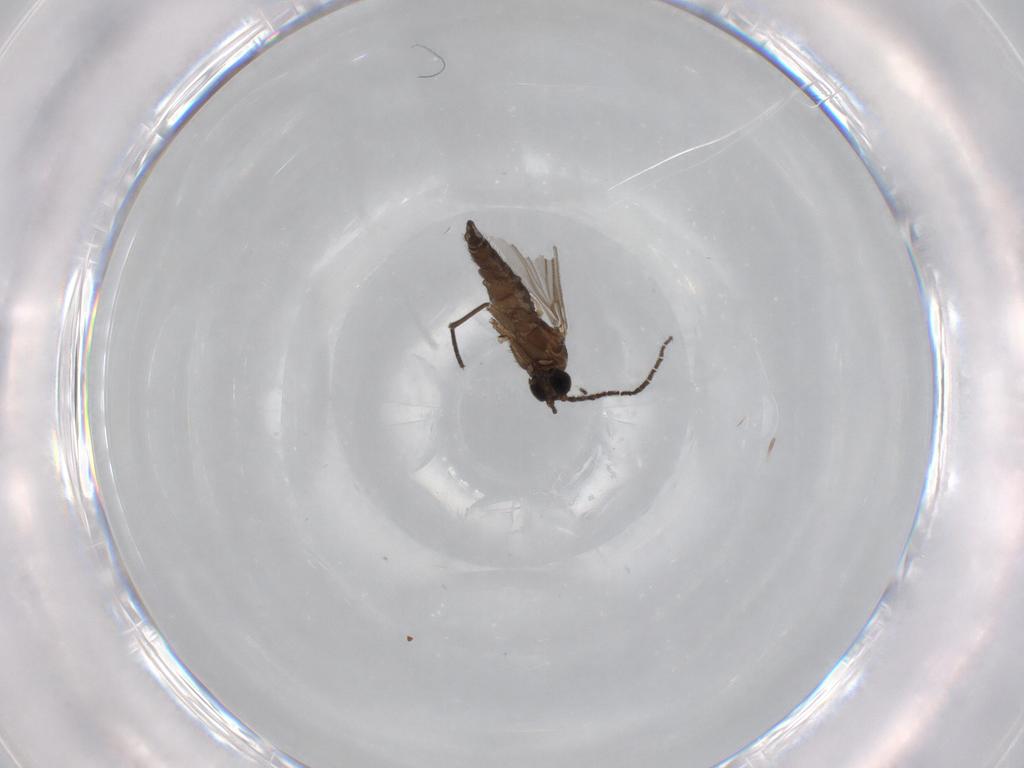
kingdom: Animalia
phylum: Arthropoda
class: Insecta
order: Diptera
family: Sciaridae
